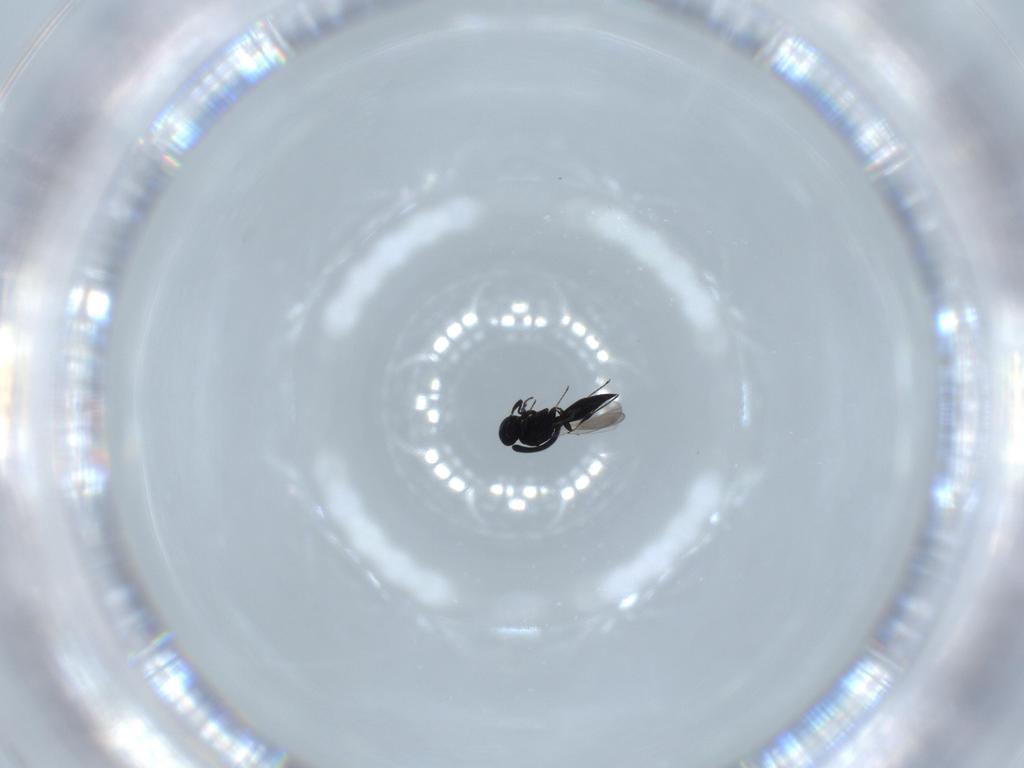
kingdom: Animalia
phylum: Arthropoda
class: Insecta
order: Hymenoptera
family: Platygastridae
